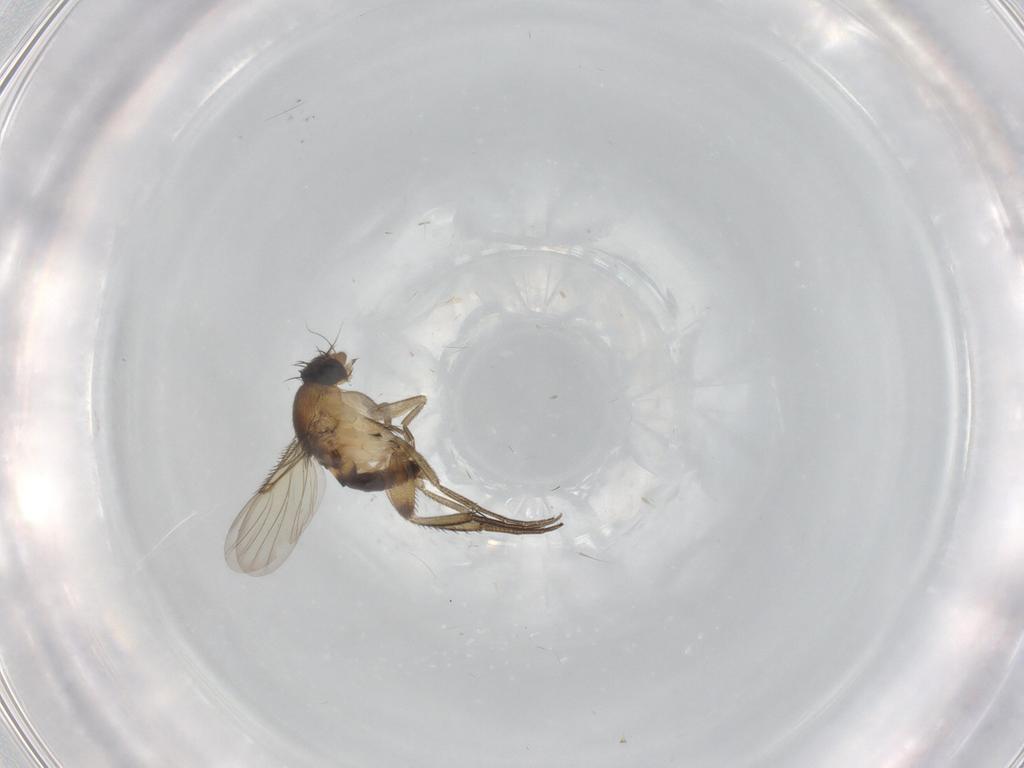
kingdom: Animalia
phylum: Arthropoda
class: Insecta
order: Diptera
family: Phoridae
